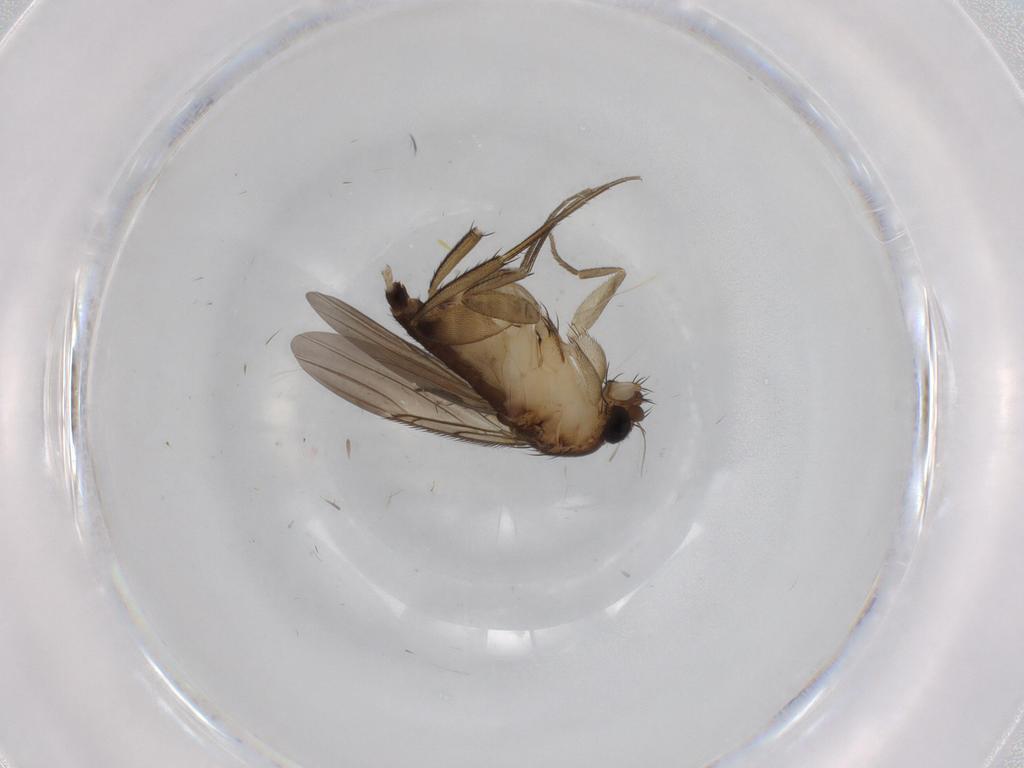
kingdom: Animalia
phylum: Arthropoda
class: Insecta
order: Diptera
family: Phoridae
